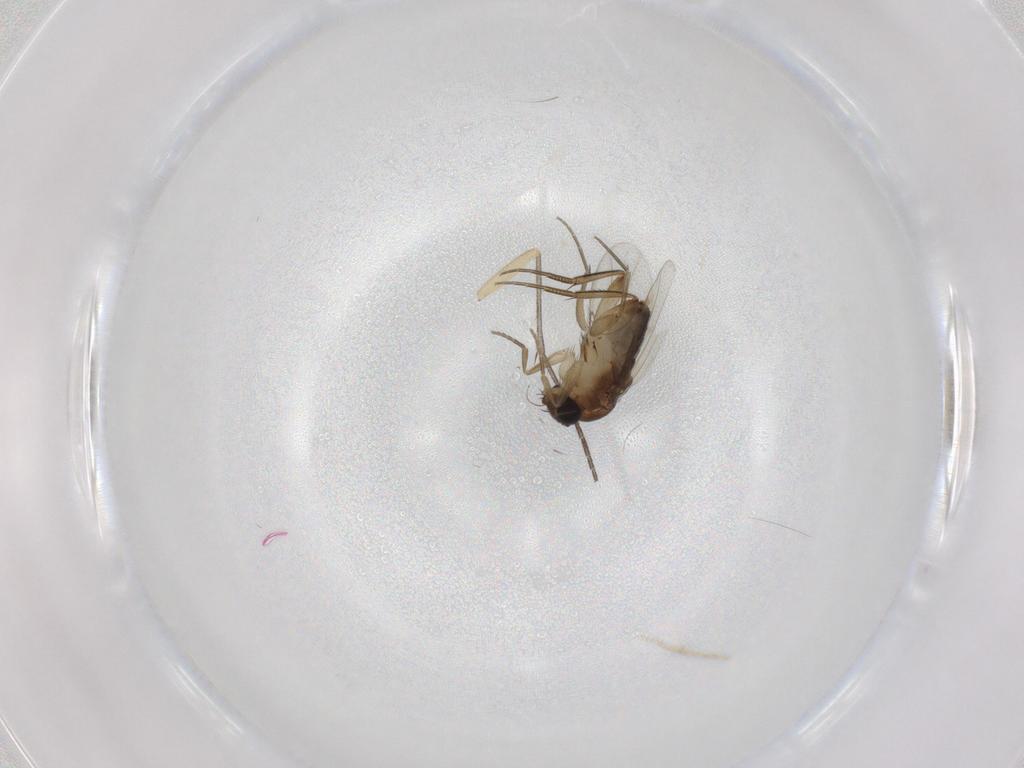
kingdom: Animalia
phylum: Arthropoda
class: Insecta
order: Diptera
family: Phoridae
